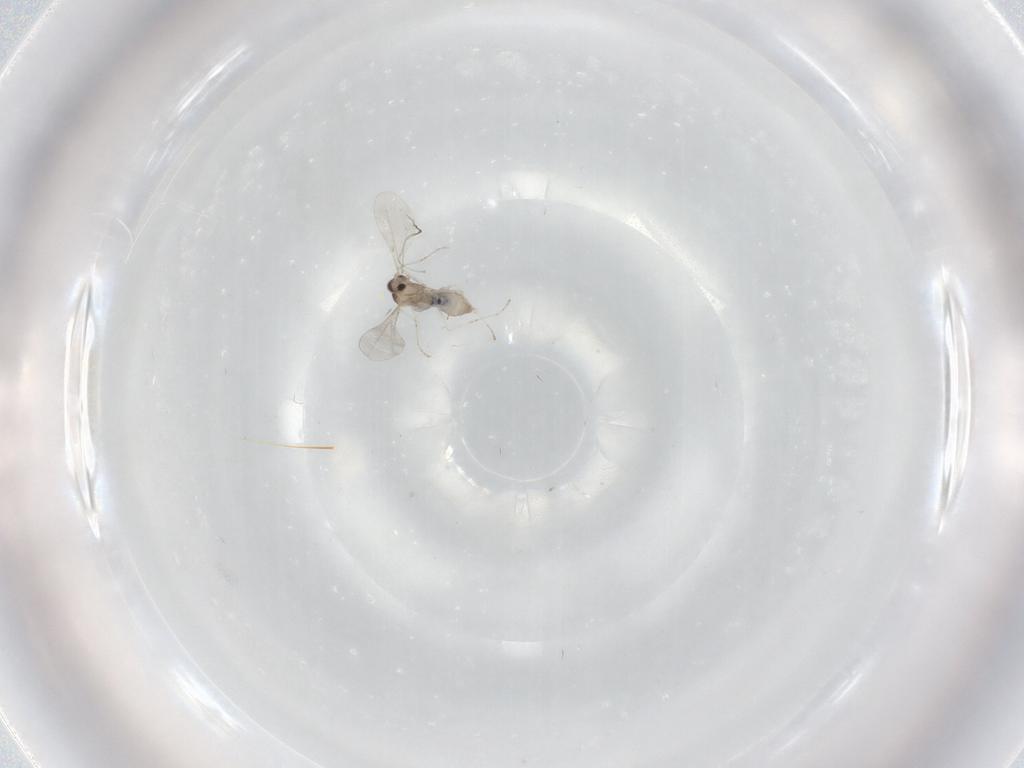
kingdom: Animalia
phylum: Arthropoda
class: Insecta
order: Diptera
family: Cecidomyiidae
